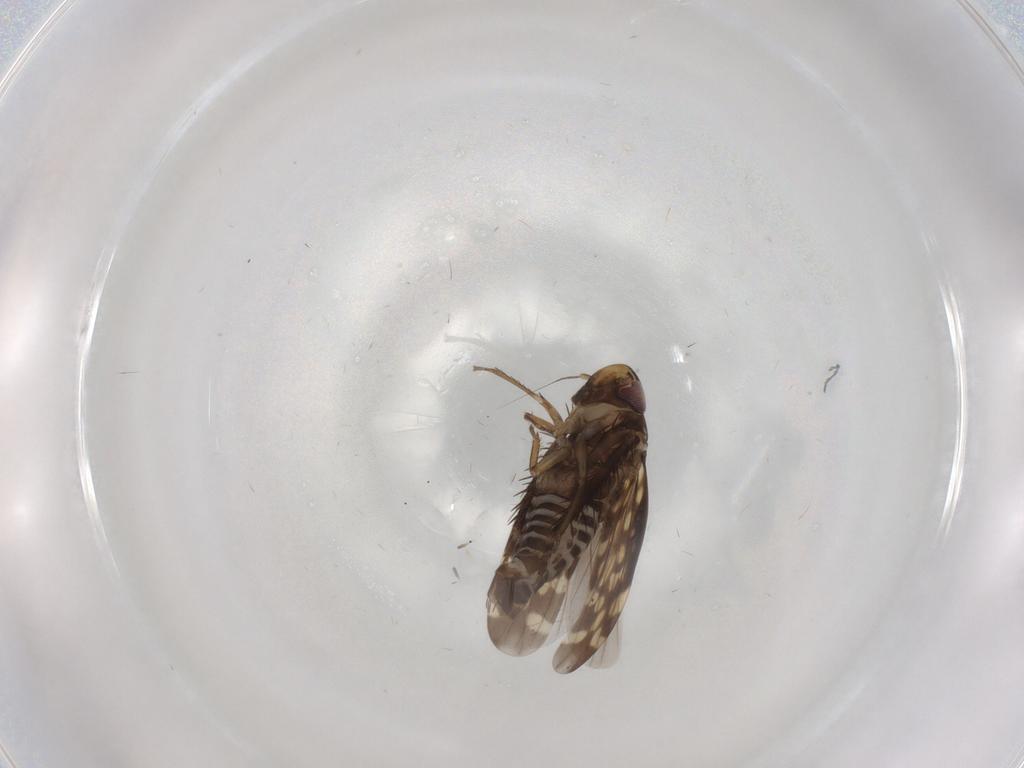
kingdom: Animalia
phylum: Arthropoda
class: Insecta
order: Hemiptera
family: Cicadellidae
